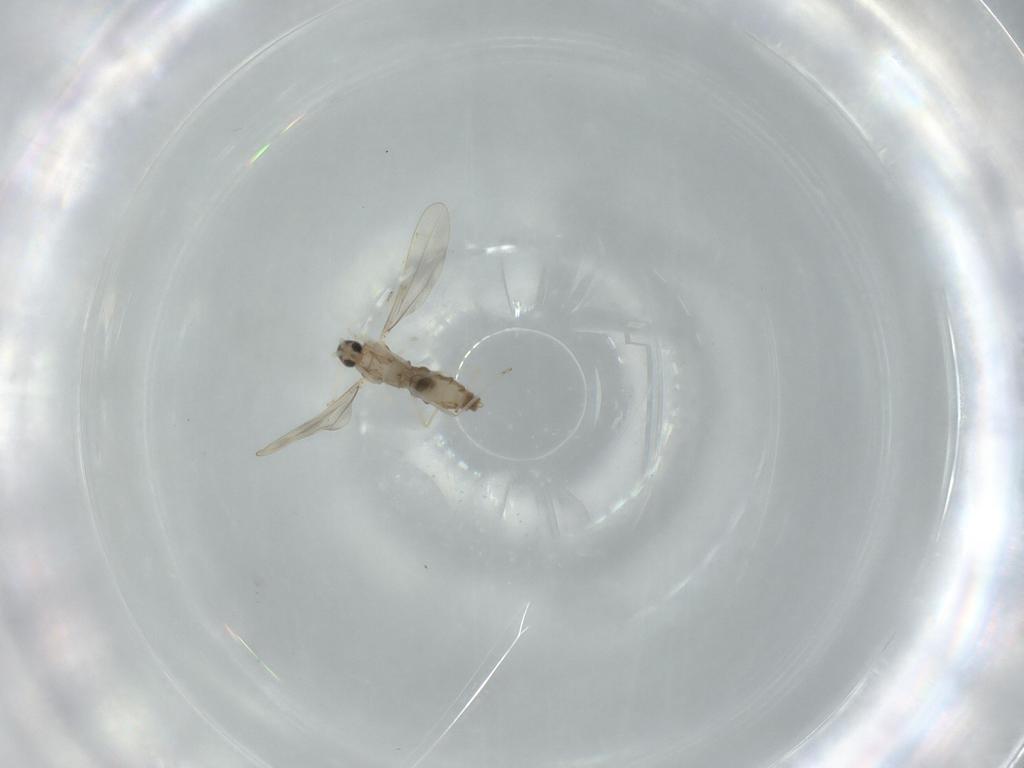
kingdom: Animalia
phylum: Arthropoda
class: Insecta
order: Diptera
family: Cecidomyiidae
